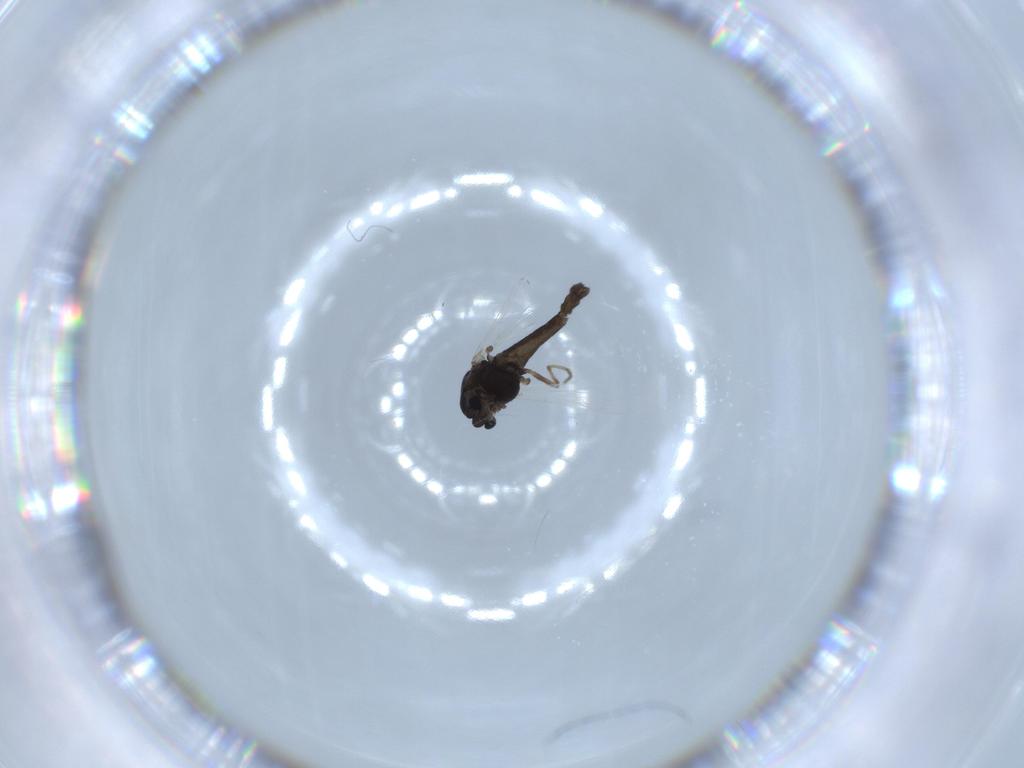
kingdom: Animalia
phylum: Arthropoda
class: Insecta
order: Diptera
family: Chironomidae
